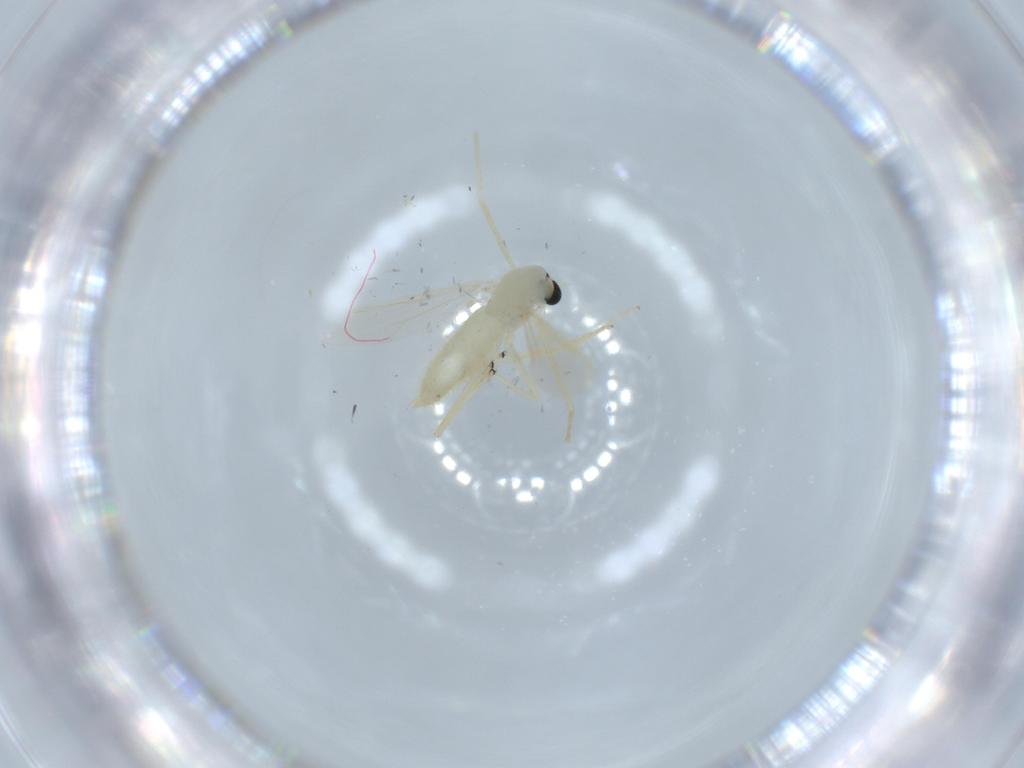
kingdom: Animalia
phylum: Arthropoda
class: Insecta
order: Diptera
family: Chironomidae
